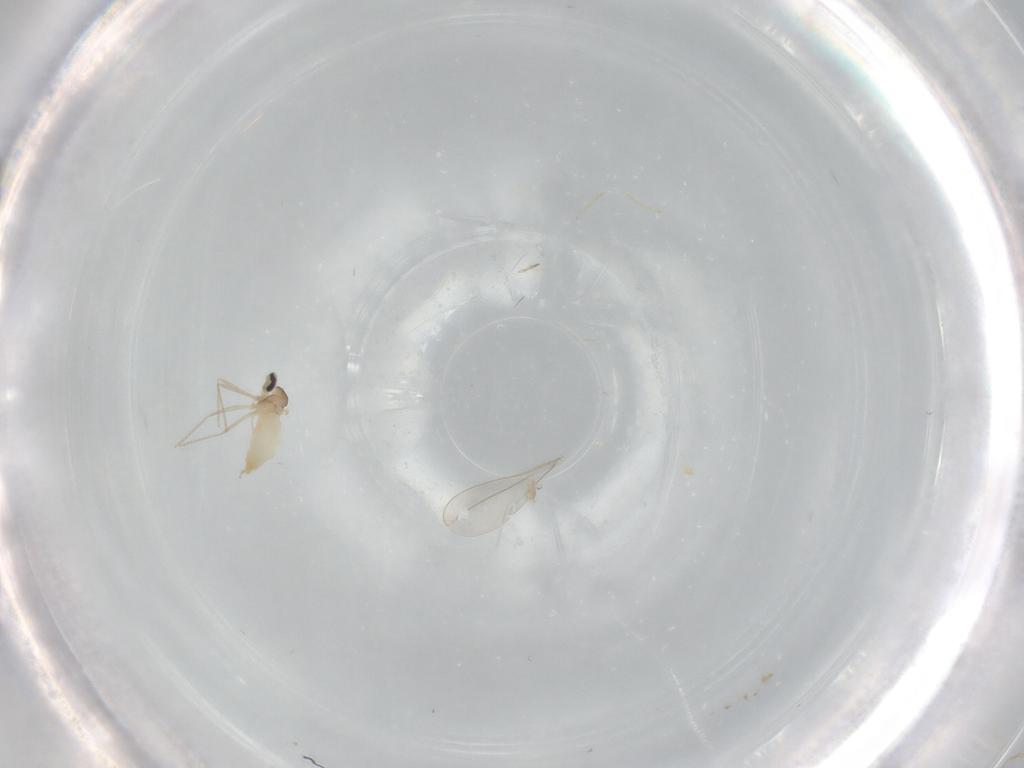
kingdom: Animalia
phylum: Arthropoda
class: Insecta
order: Diptera
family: Cecidomyiidae
